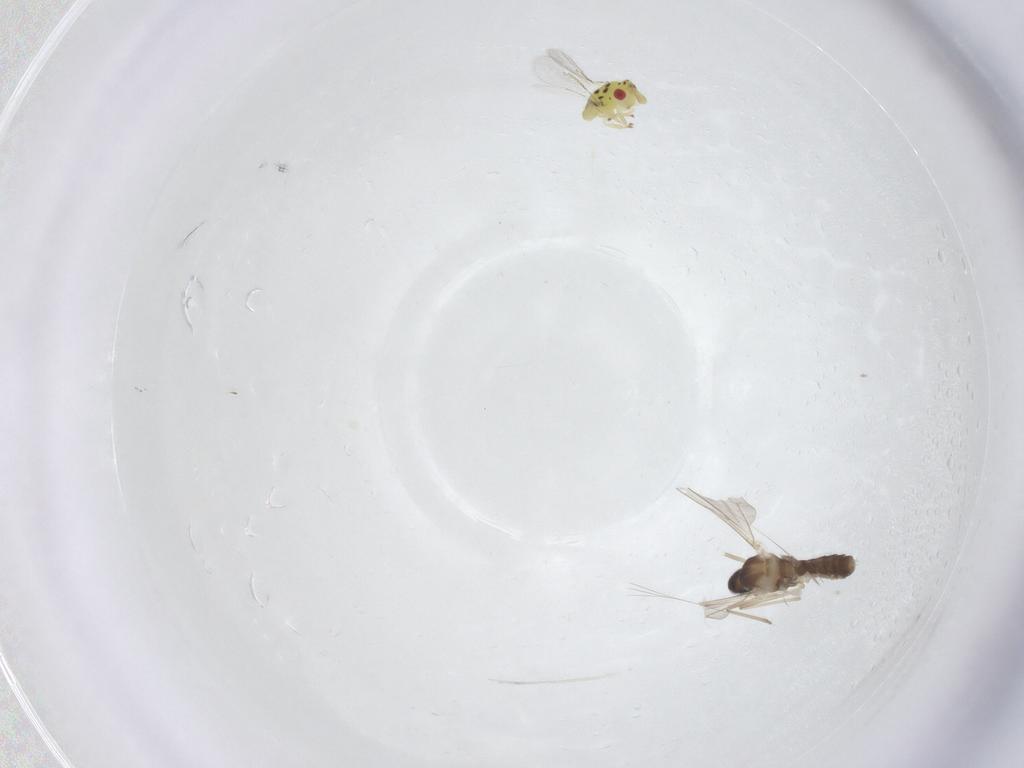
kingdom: Animalia
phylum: Arthropoda
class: Insecta
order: Diptera
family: Cecidomyiidae
